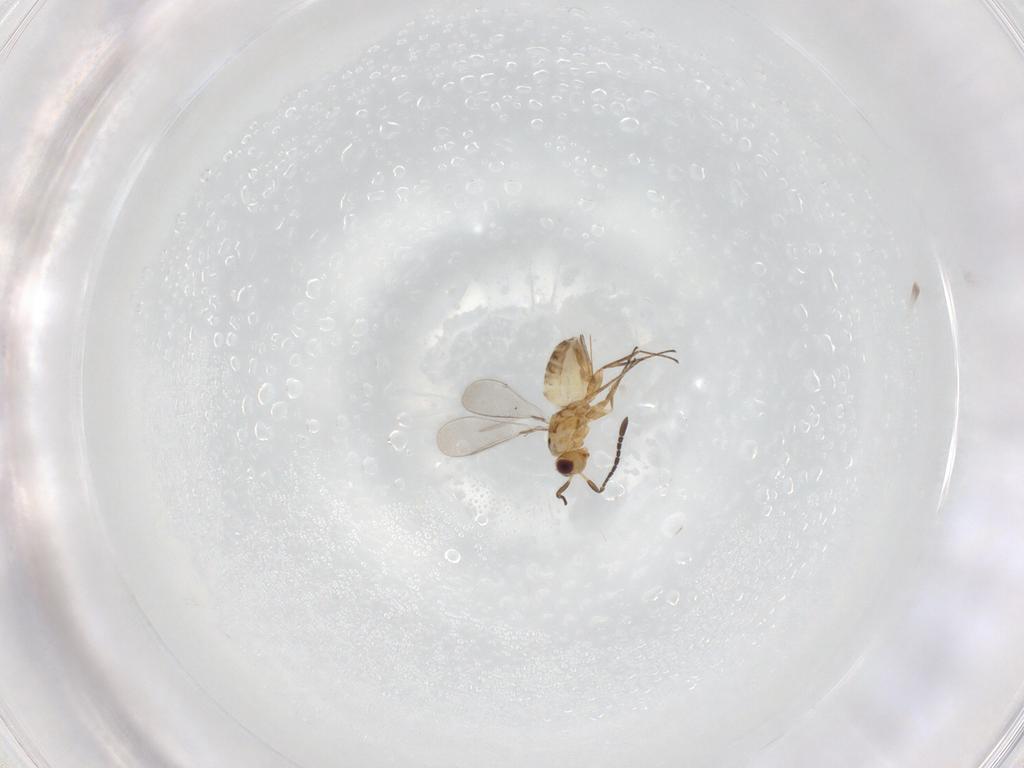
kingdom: Animalia
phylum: Arthropoda
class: Insecta
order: Hymenoptera
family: Mymaridae
